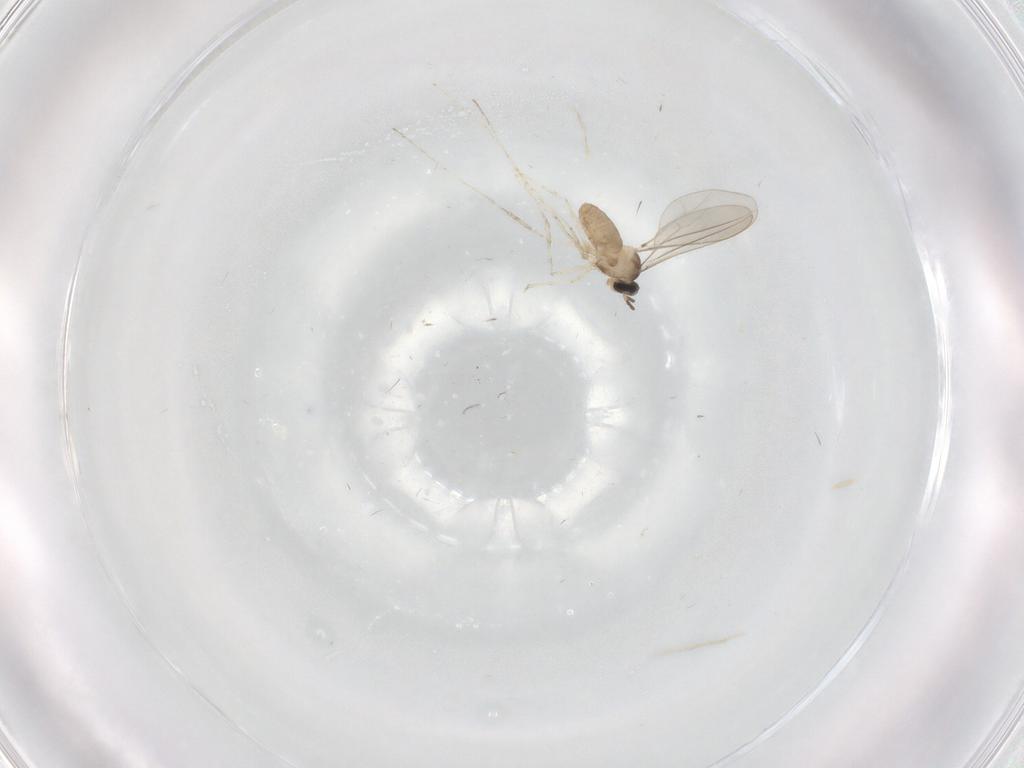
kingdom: Animalia
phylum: Arthropoda
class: Insecta
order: Diptera
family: Cecidomyiidae
